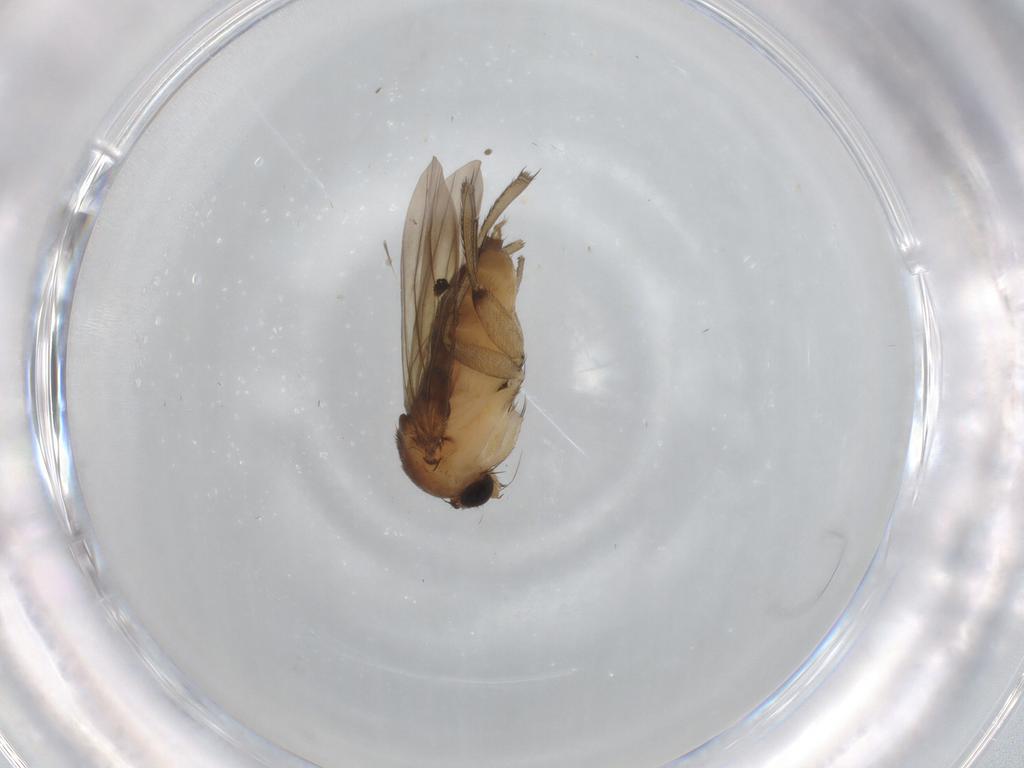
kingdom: Animalia
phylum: Arthropoda
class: Insecta
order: Diptera
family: Phoridae
